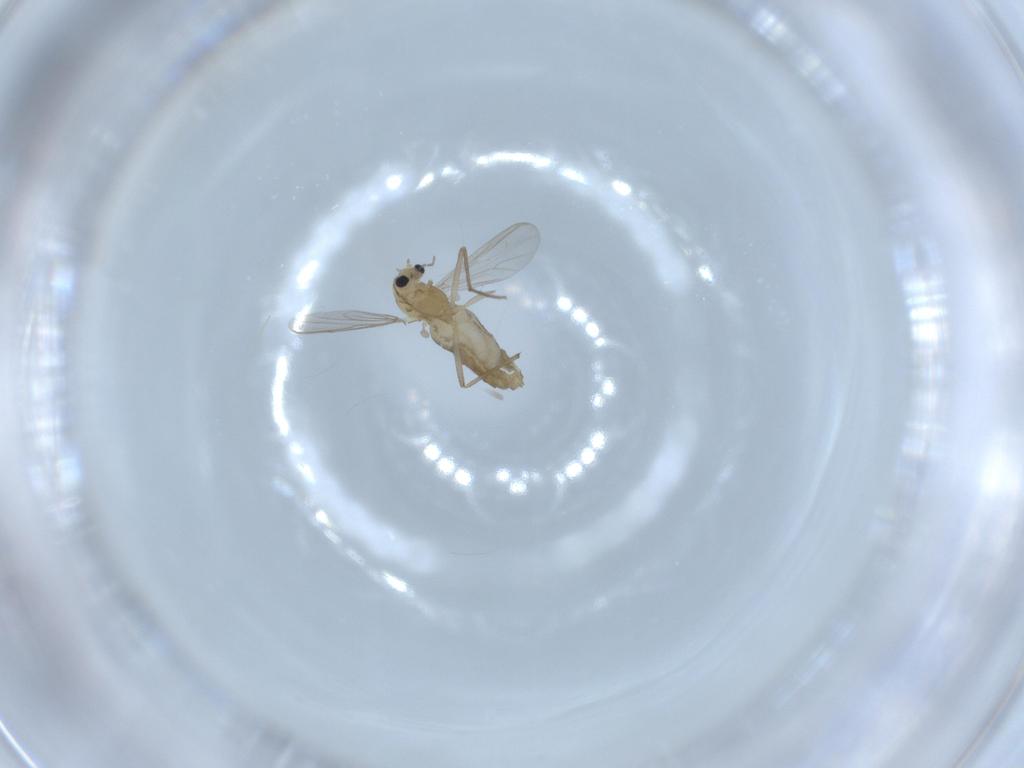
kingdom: Animalia
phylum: Arthropoda
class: Insecta
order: Diptera
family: Chironomidae
